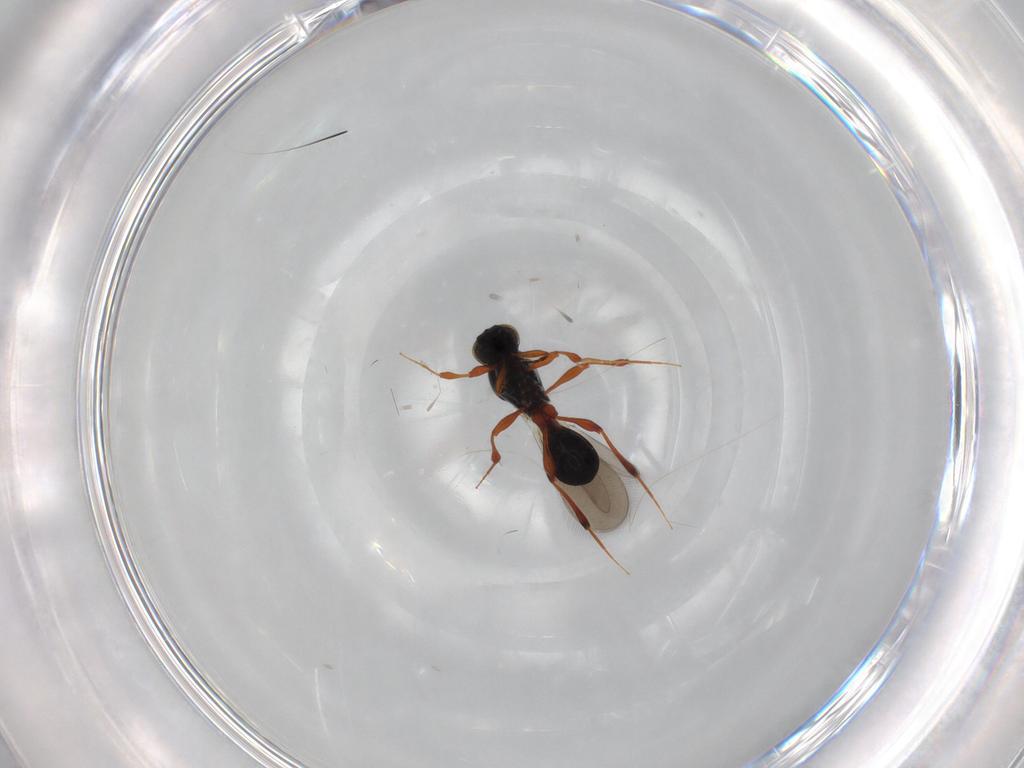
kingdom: Animalia
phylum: Arthropoda
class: Insecta
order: Hymenoptera
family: Platygastridae
